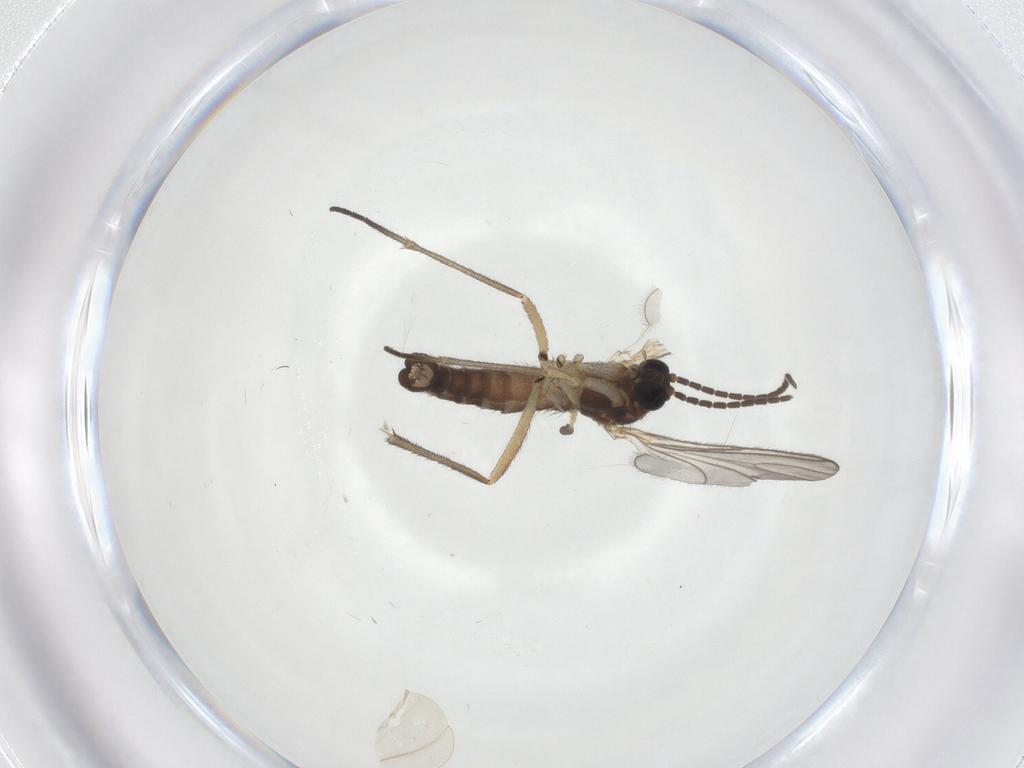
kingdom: Animalia
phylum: Arthropoda
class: Insecta
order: Diptera
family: Sciaridae
